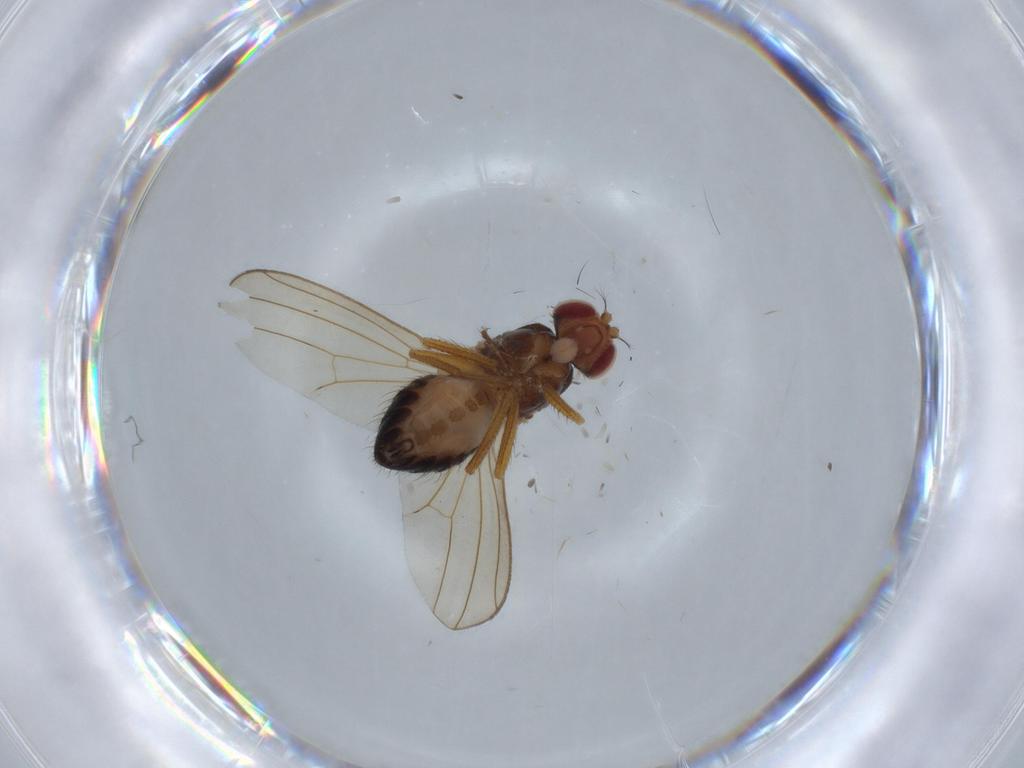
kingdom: Animalia
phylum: Arthropoda
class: Insecta
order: Diptera
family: Drosophilidae
